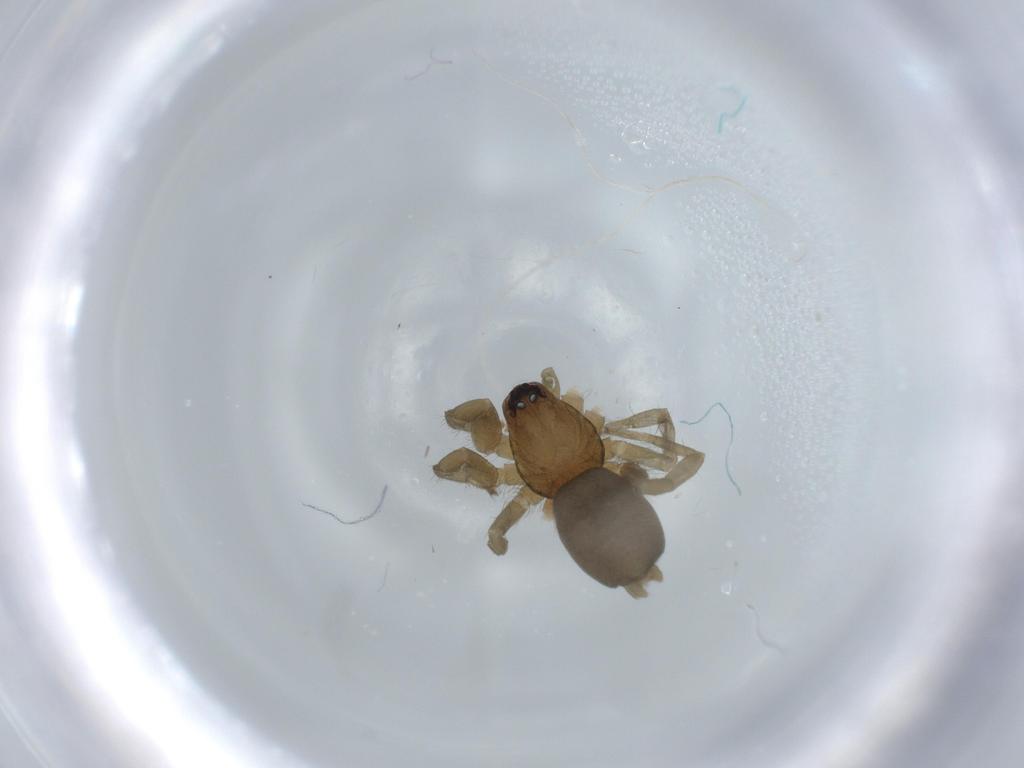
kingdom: Animalia
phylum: Arthropoda
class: Arachnida
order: Araneae
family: Gnaphosidae
